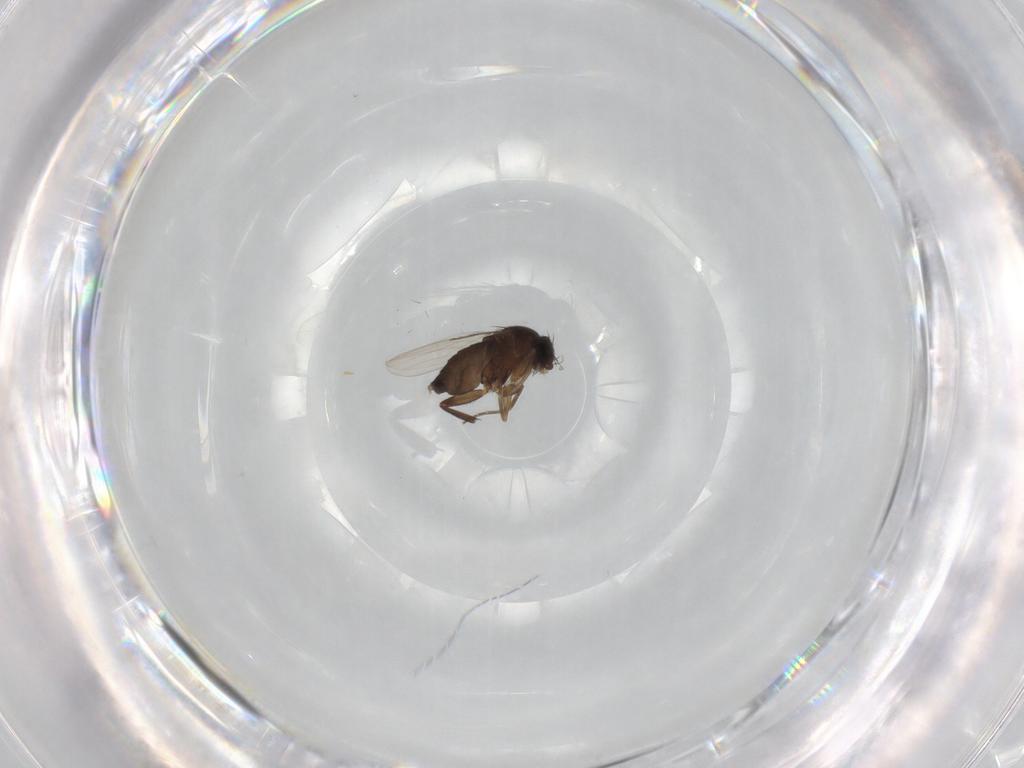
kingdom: Animalia
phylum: Arthropoda
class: Insecta
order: Diptera
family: Phoridae
